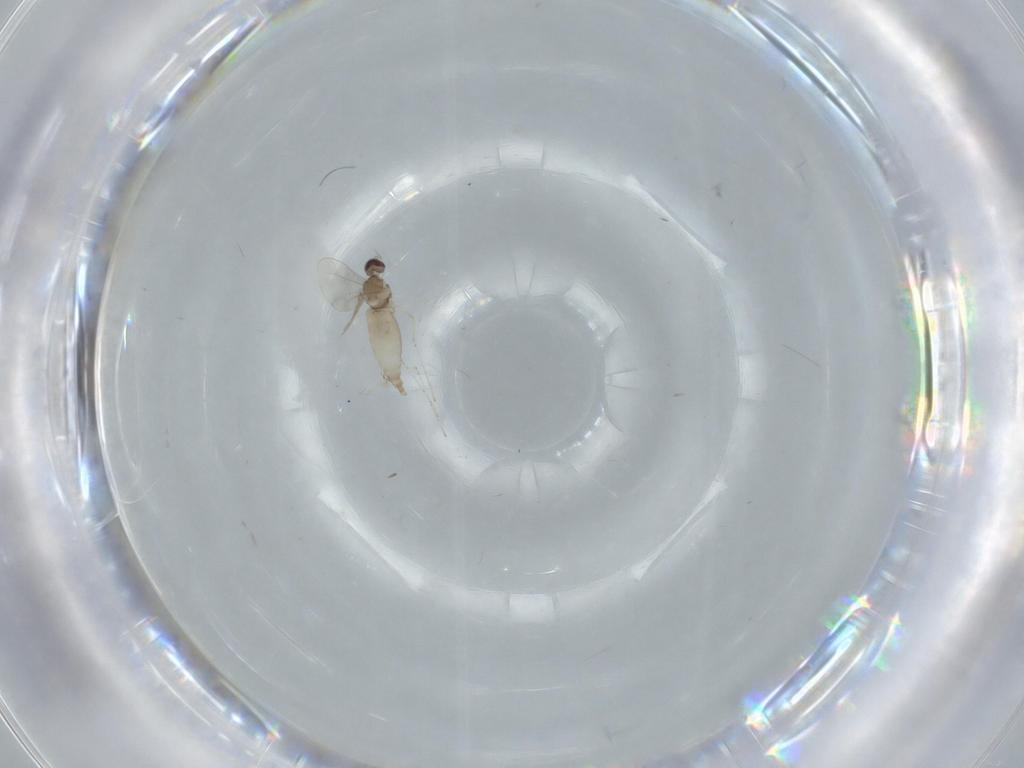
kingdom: Animalia
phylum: Arthropoda
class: Insecta
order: Diptera
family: Cecidomyiidae
